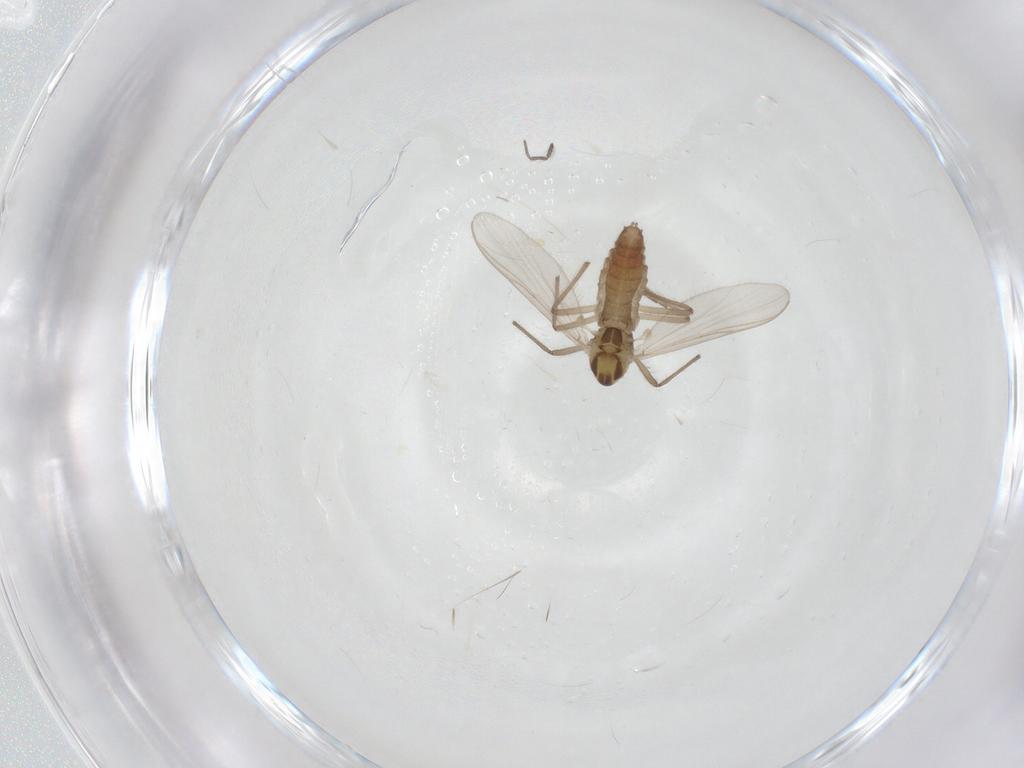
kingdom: Animalia
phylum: Arthropoda
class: Insecta
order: Diptera
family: Chironomidae
